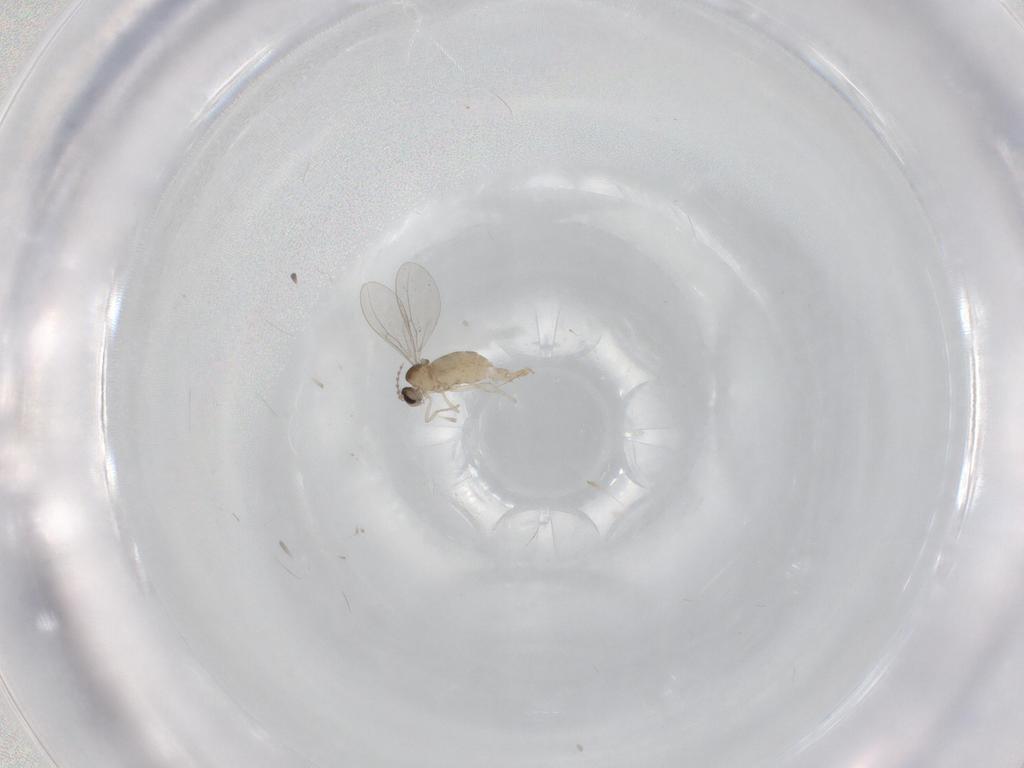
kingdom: Animalia
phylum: Arthropoda
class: Insecta
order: Diptera
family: Cecidomyiidae
